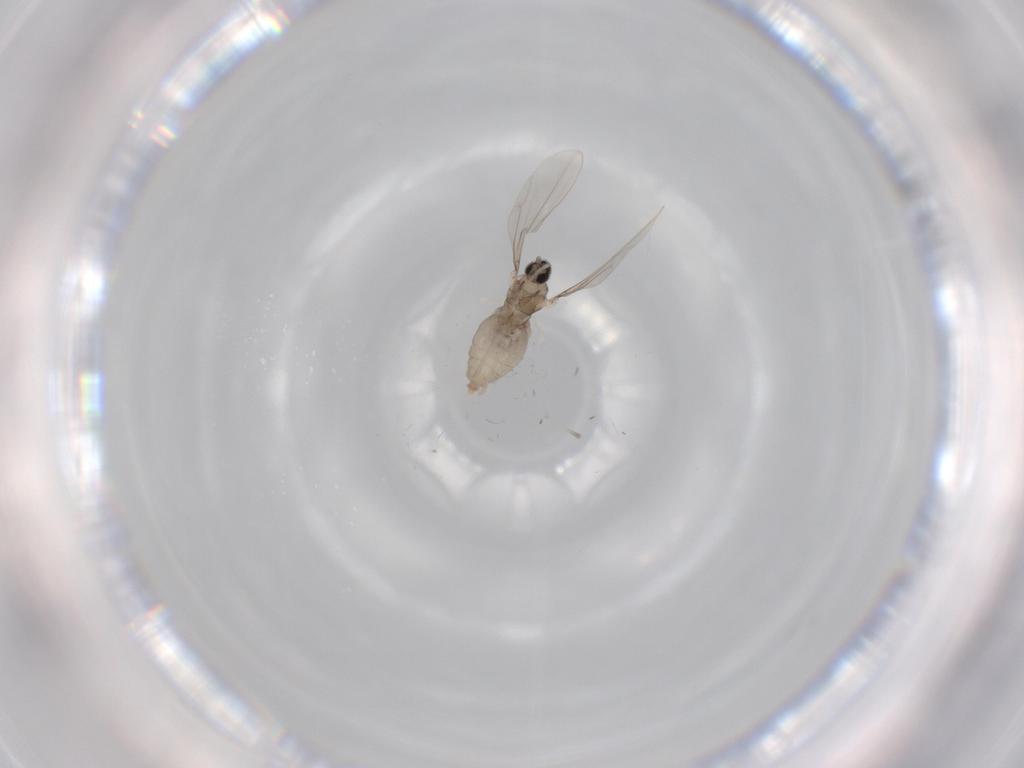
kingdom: Animalia
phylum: Arthropoda
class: Insecta
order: Diptera
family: Cecidomyiidae
